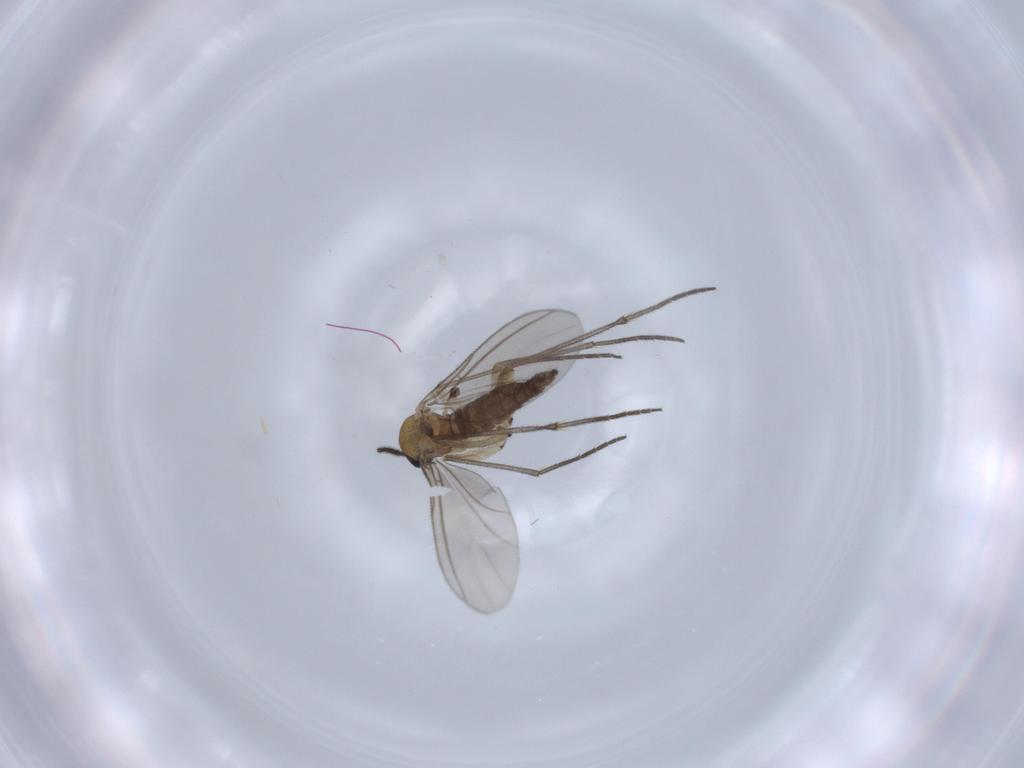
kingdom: Animalia
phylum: Arthropoda
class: Insecta
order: Diptera
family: Sciaridae
